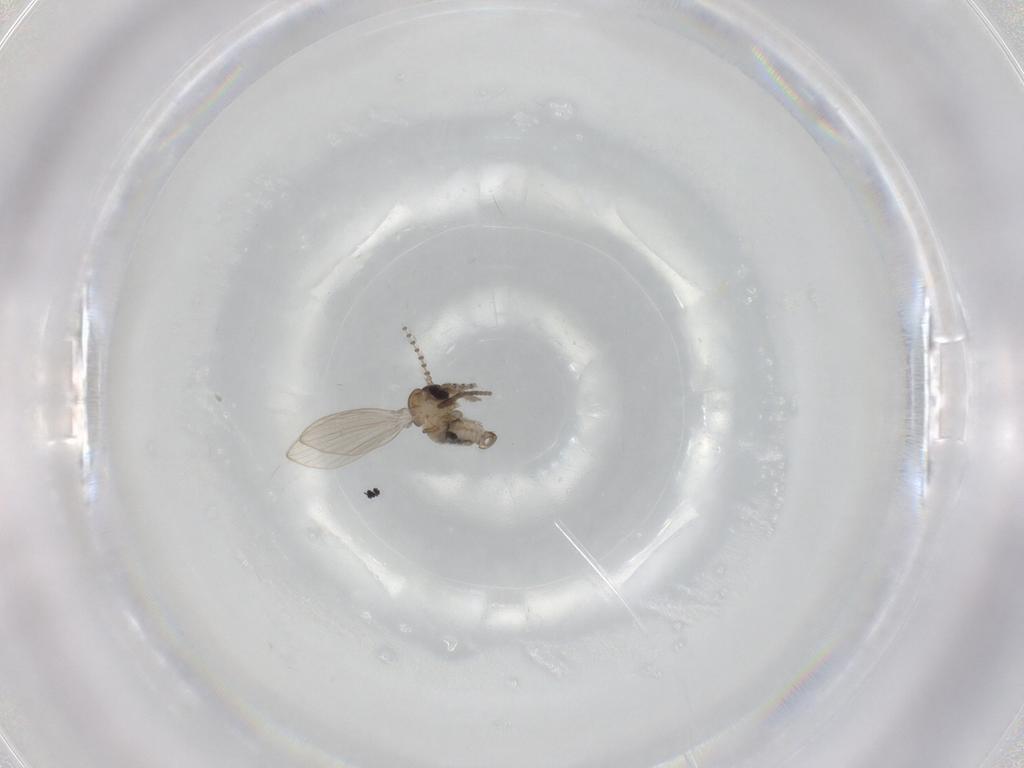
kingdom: Animalia
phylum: Arthropoda
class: Insecta
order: Diptera
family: Psychodidae
